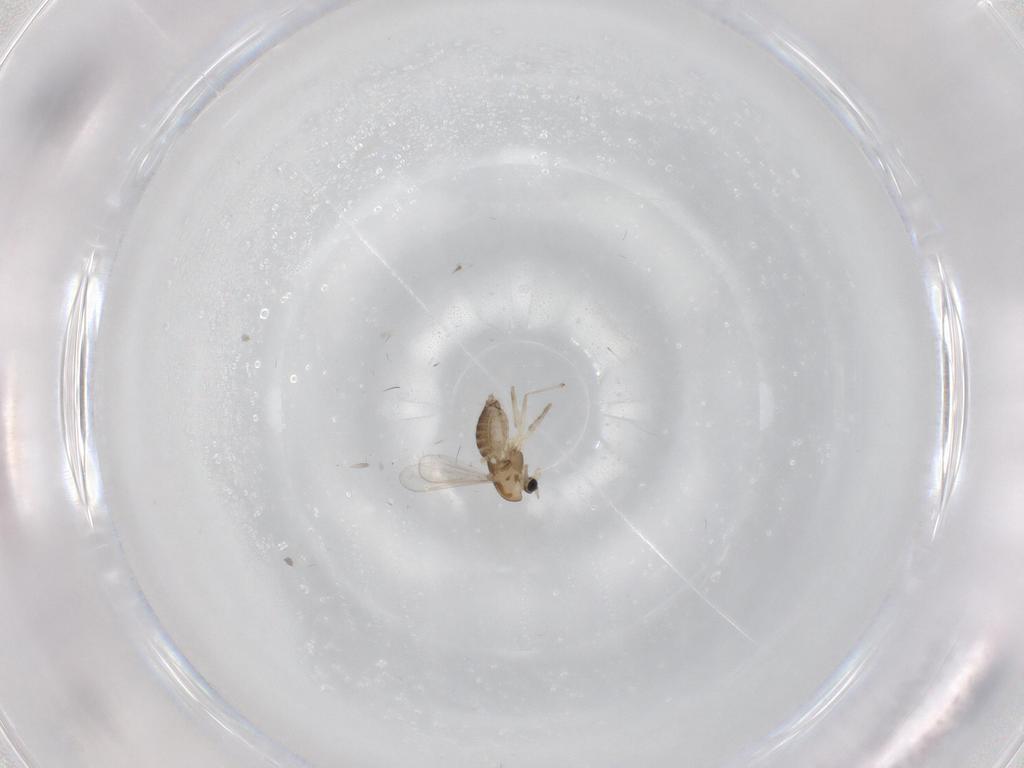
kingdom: Animalia
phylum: Arthropoda
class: Insecta
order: Diptera
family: Chironomidae
